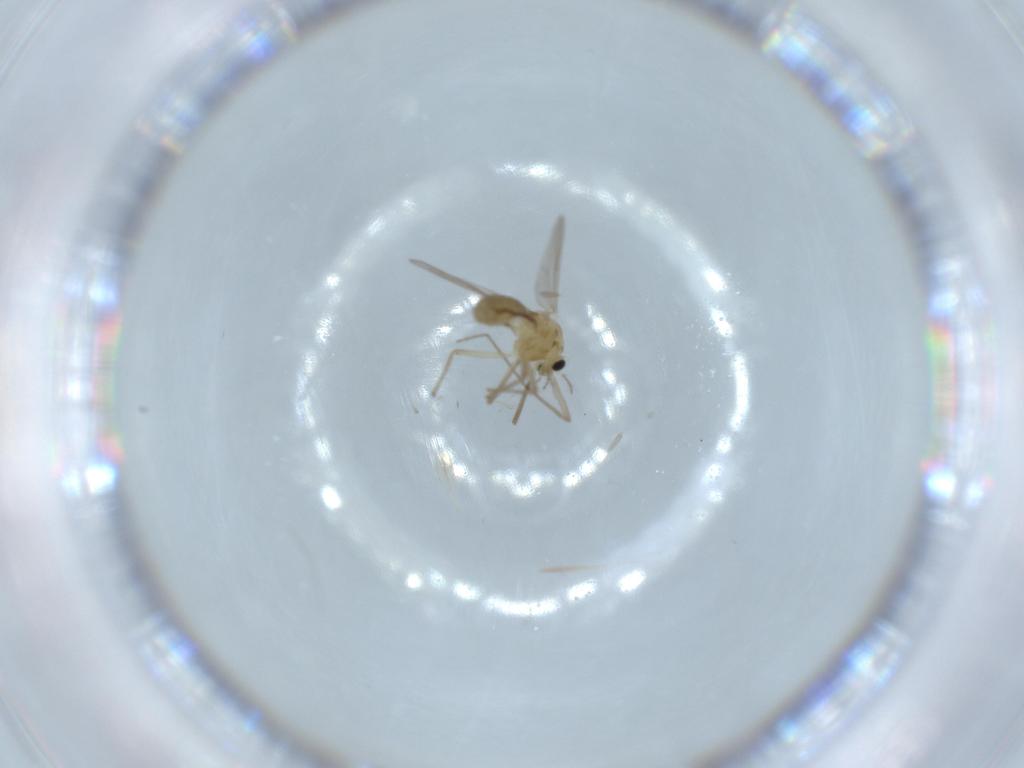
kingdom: Animalia
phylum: Arthropoda
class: Insecta
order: Diptera
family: Chironomidae
